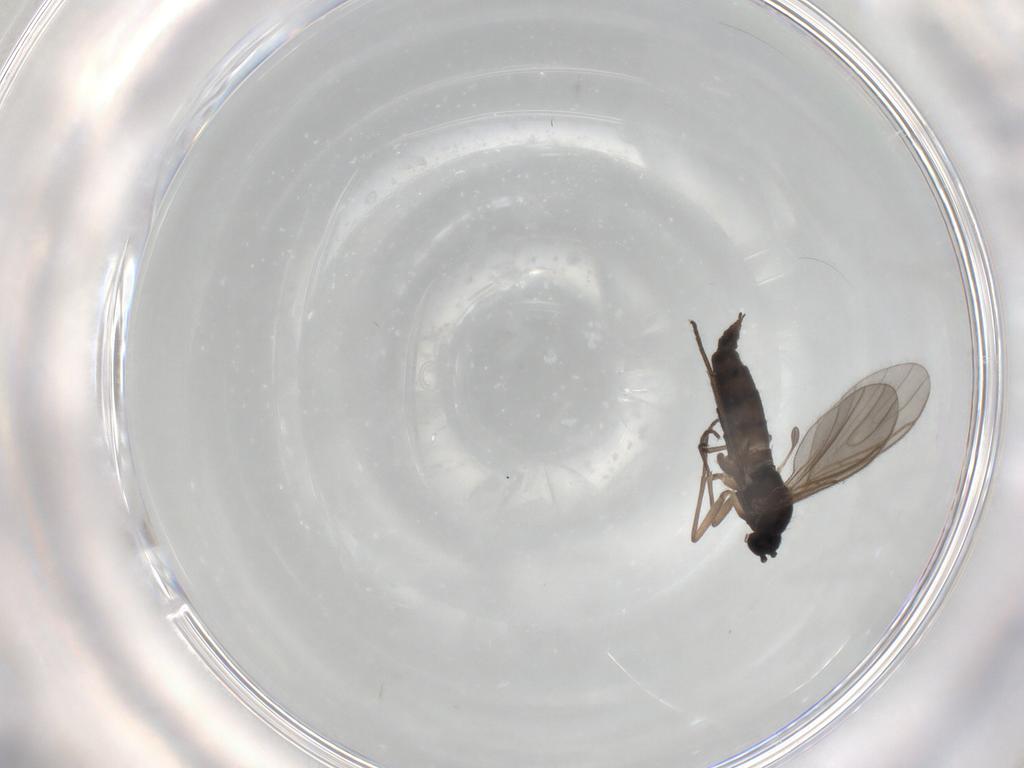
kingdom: Animalia
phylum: Arthropoda
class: Insecta
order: Diptera
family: Sciaridae
